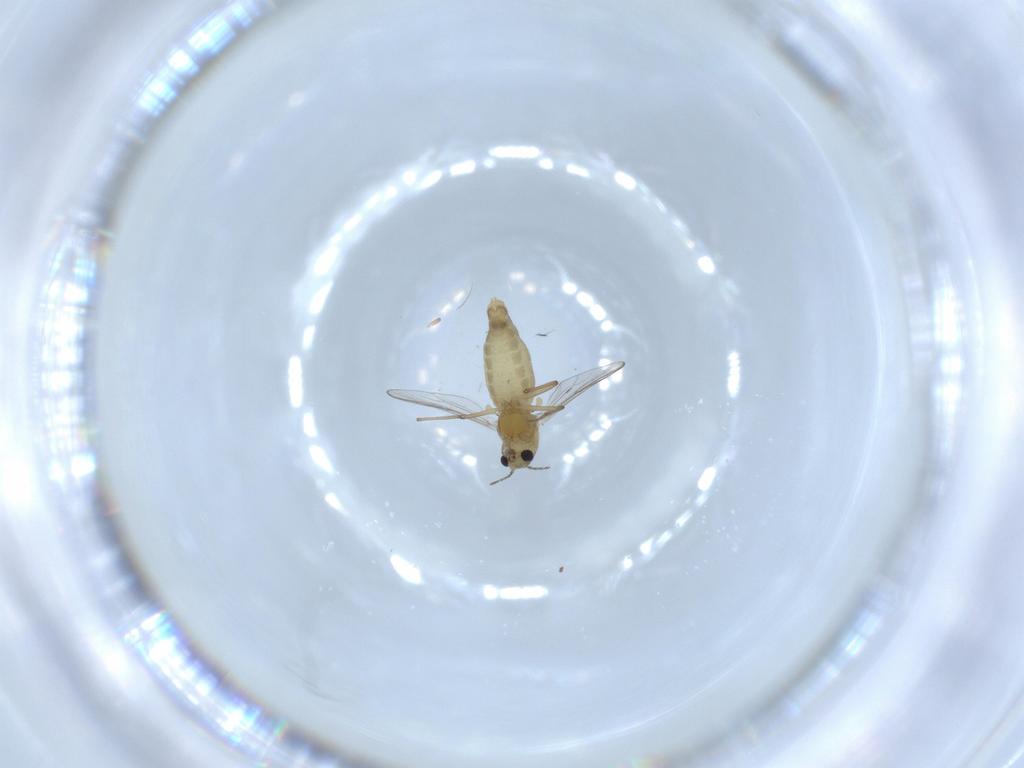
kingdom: Animalia
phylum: Arthropoda
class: Insecta
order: Diptera
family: Chironomidae
